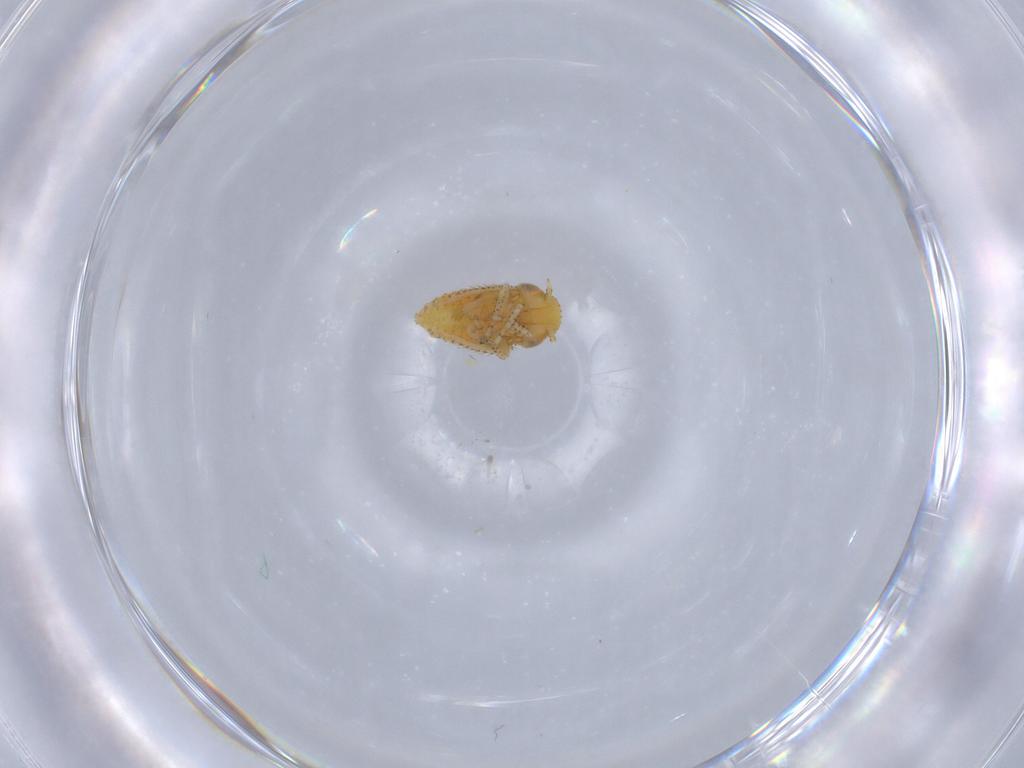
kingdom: Animalia
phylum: Arthropoda
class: Insecta
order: Hemiptera
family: Cicadellidae
